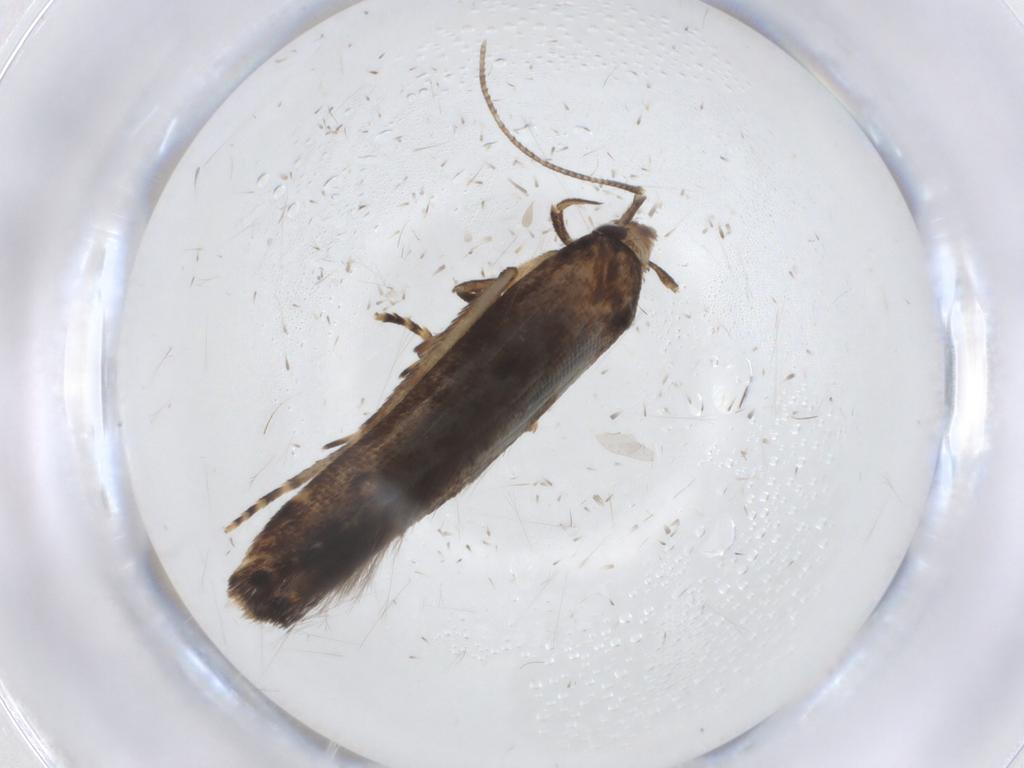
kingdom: Animalia
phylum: Arthropoda
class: Insecta
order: Lepidoptera
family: Cosmopterigidae
